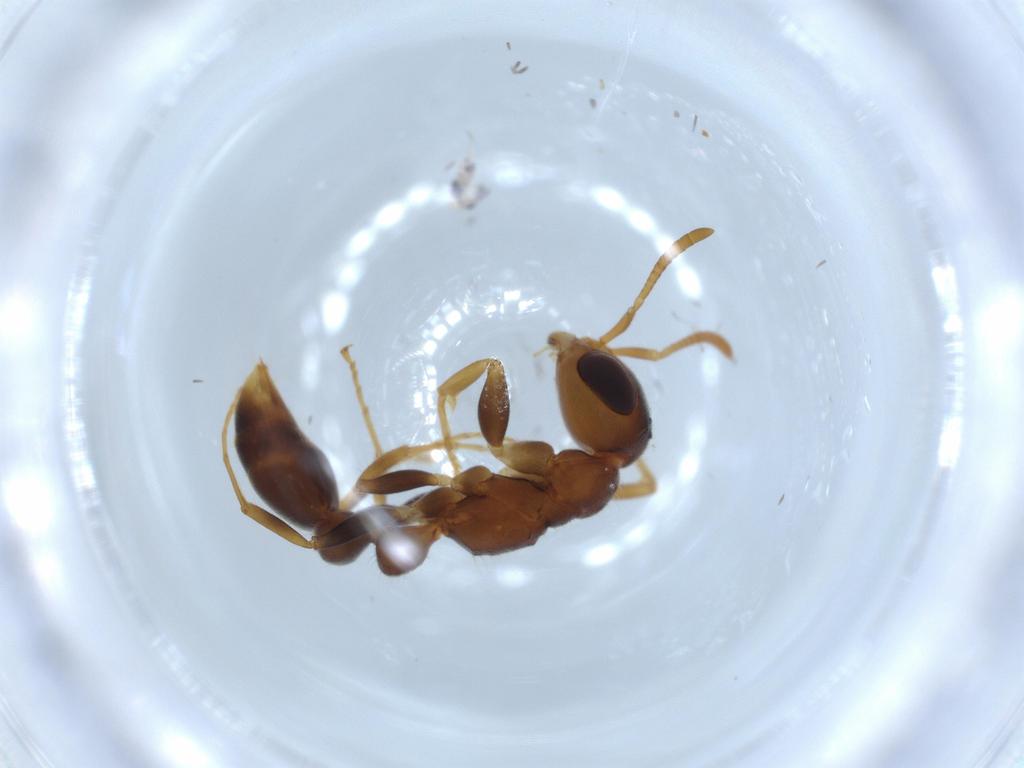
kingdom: Animalia
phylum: Arthropoda
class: Insecta
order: Hymenoptera
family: Formicidae
